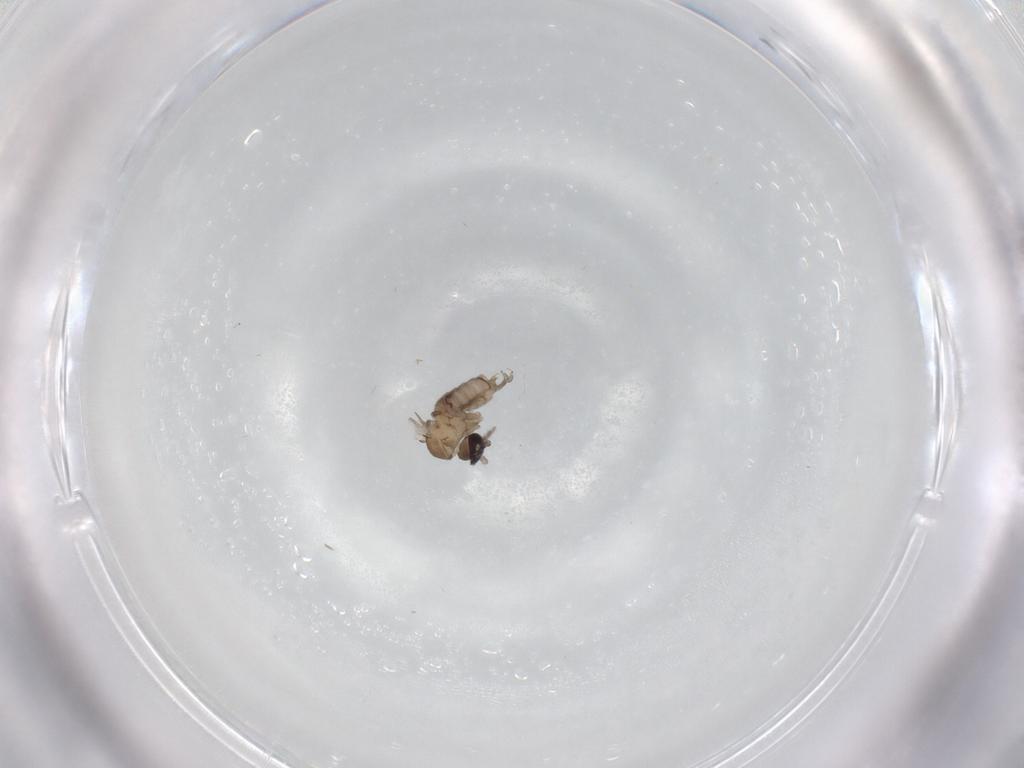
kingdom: Animalia
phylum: Arthropoda
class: Insecta
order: Diptera
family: Psychodidae
